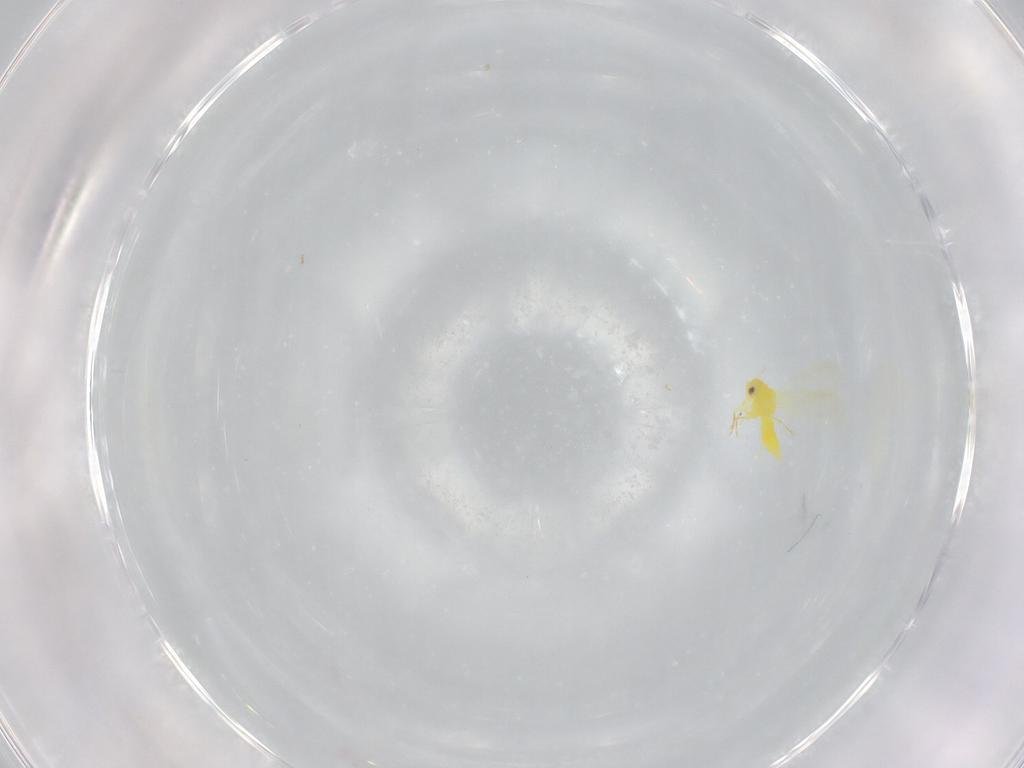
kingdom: Animalia
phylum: Arthropoda
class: Insecta
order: Hemiptera
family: Aleyrodidae
